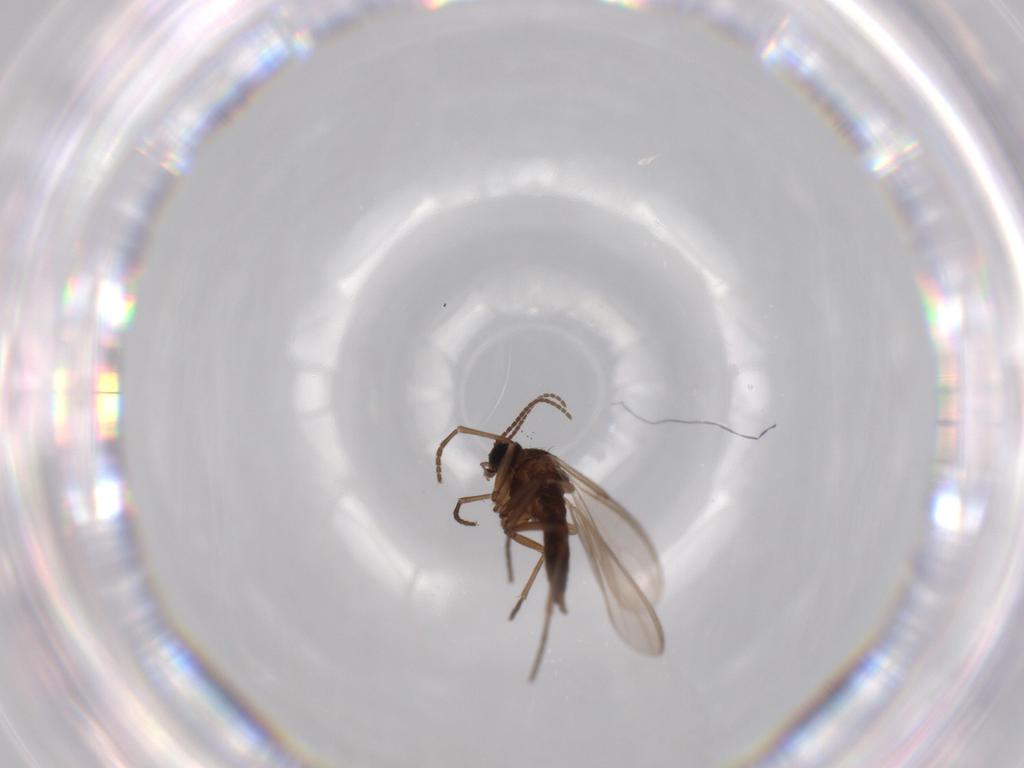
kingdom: Animalia
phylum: Arthropoda
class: Insecta
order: Diptera
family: Sciaridae
